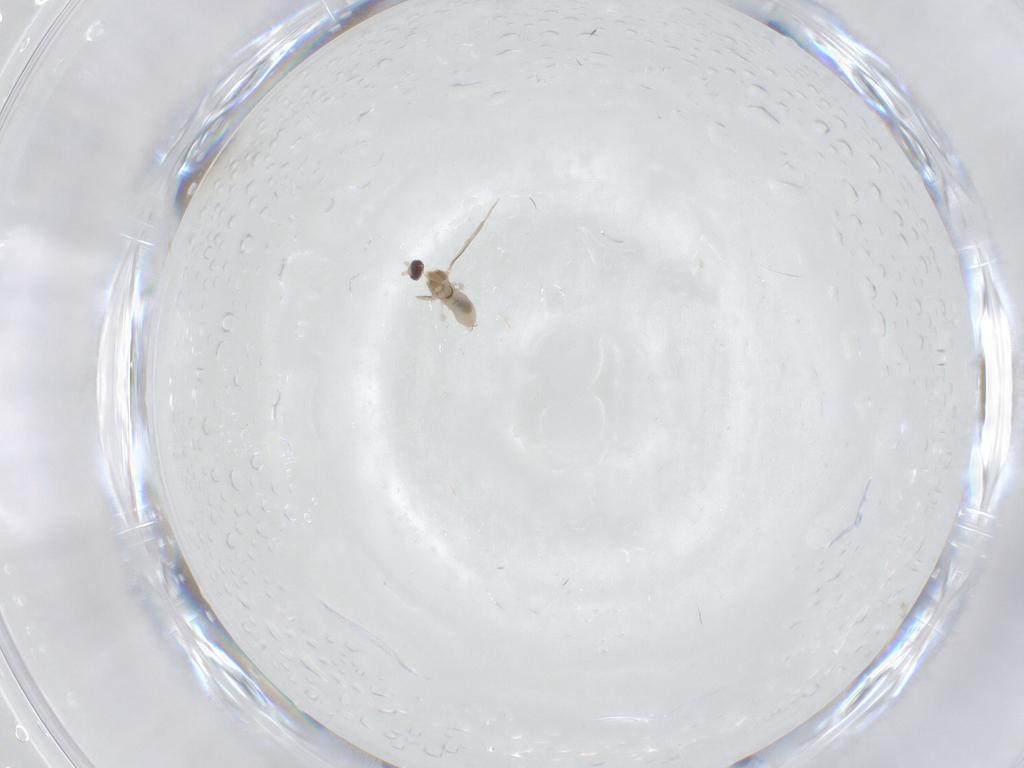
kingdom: Animalia
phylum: Arthropoda
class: Insecta
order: Diptera
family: Cecidomyiidae
